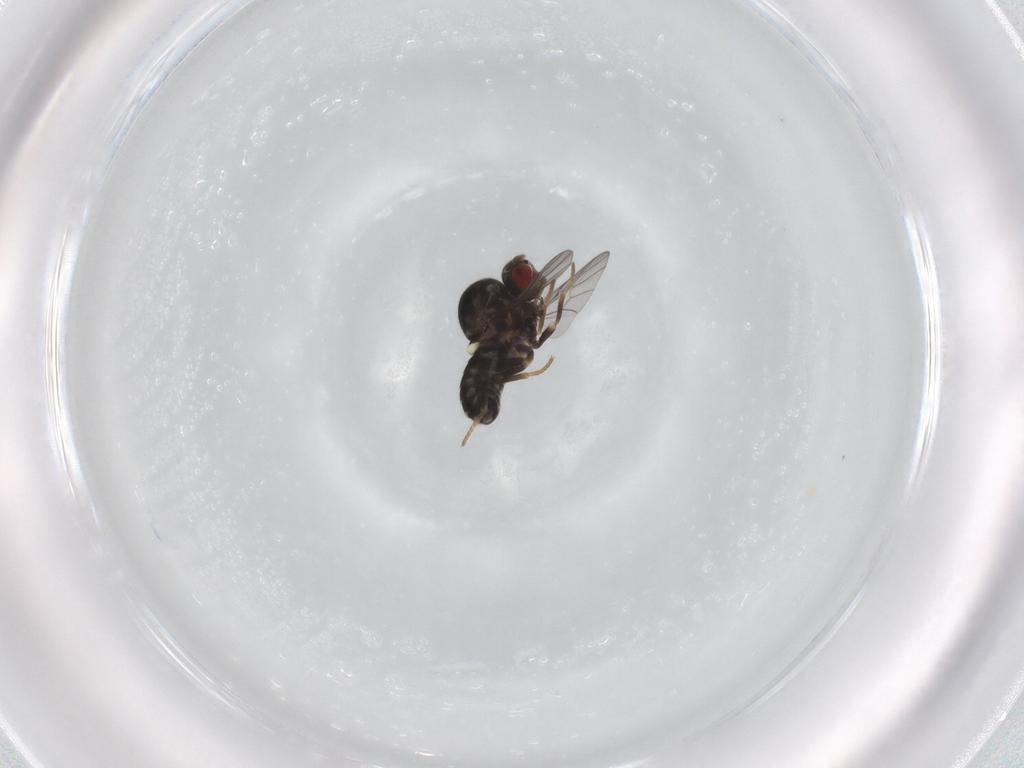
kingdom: Animalia
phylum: Arthropoda
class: Insecta
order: Diptera
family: Bombyliidae
